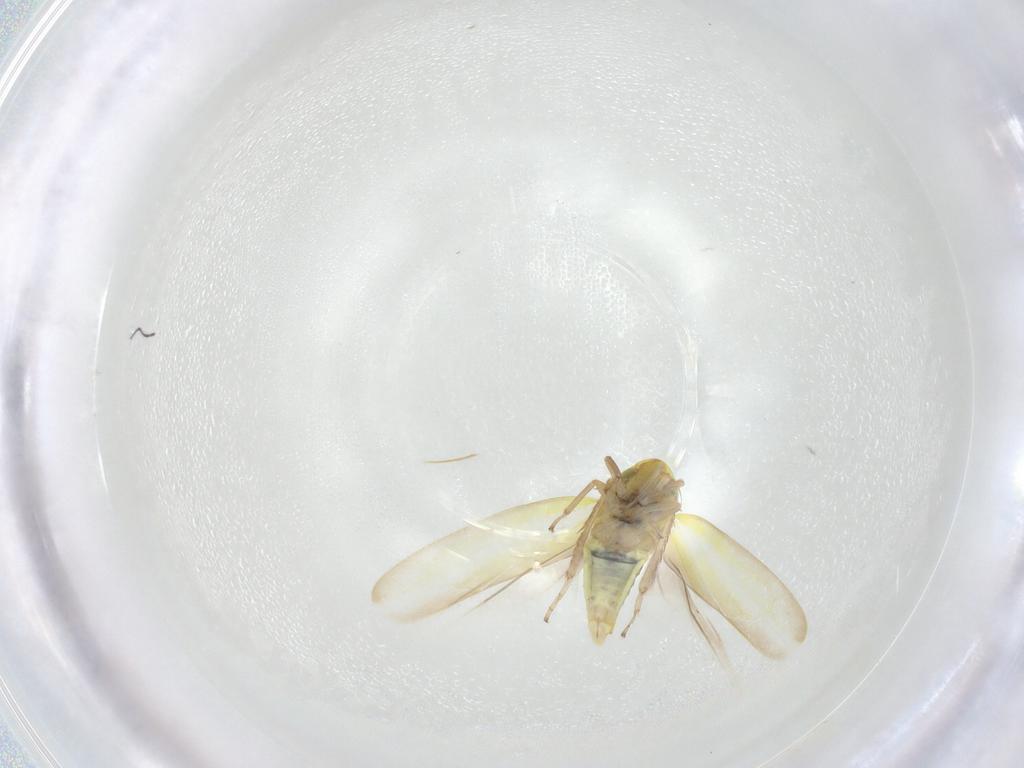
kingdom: Animalia
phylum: Arthropoda
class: Insecta
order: Hemiptera
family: Cicadellidae
